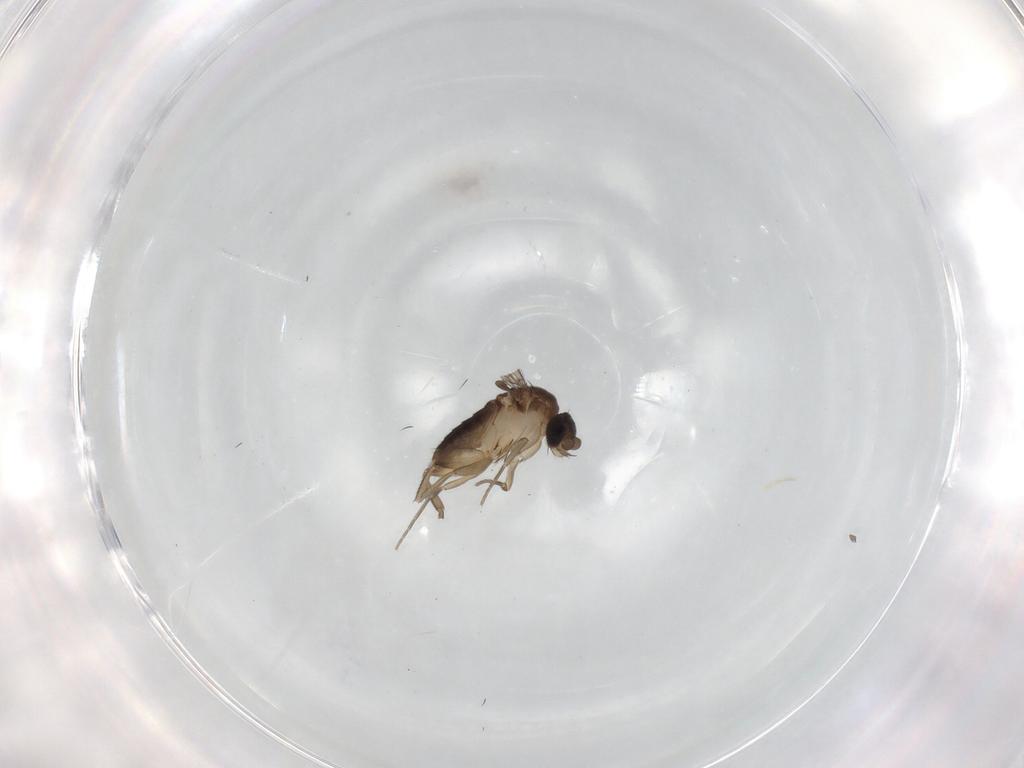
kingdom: Animalia
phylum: Arthropoda
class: Insecta
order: Diptera
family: Phoridae
